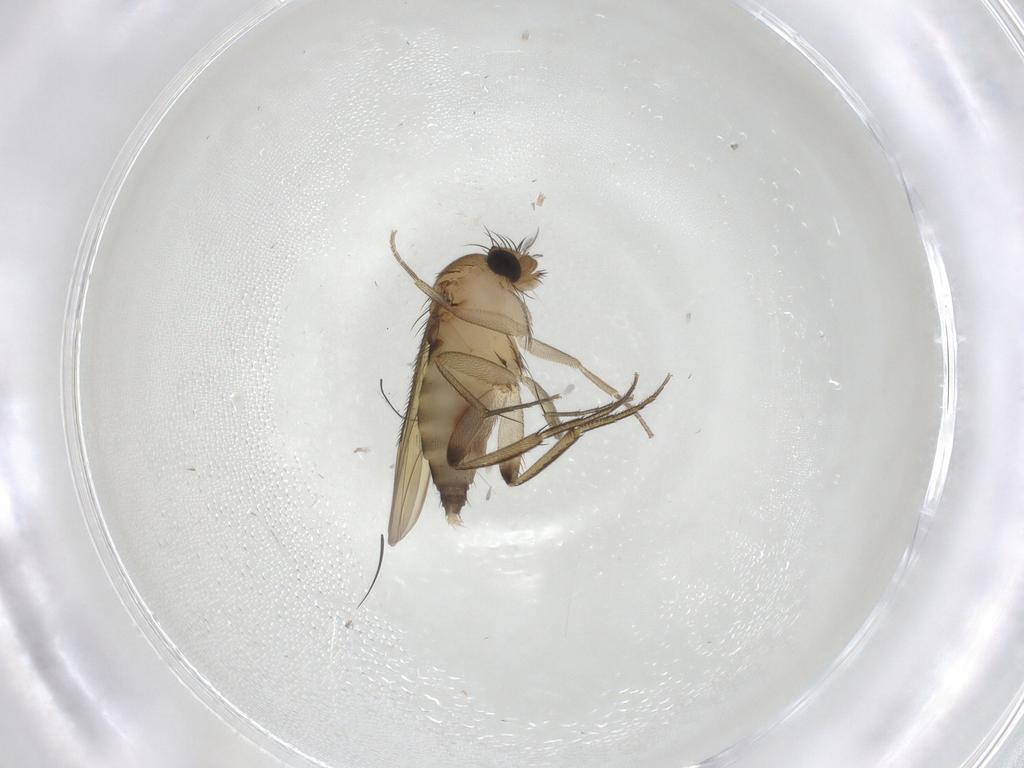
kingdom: Animalia
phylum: Arthropoda
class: Insecta
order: Diptera
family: Phoridae
